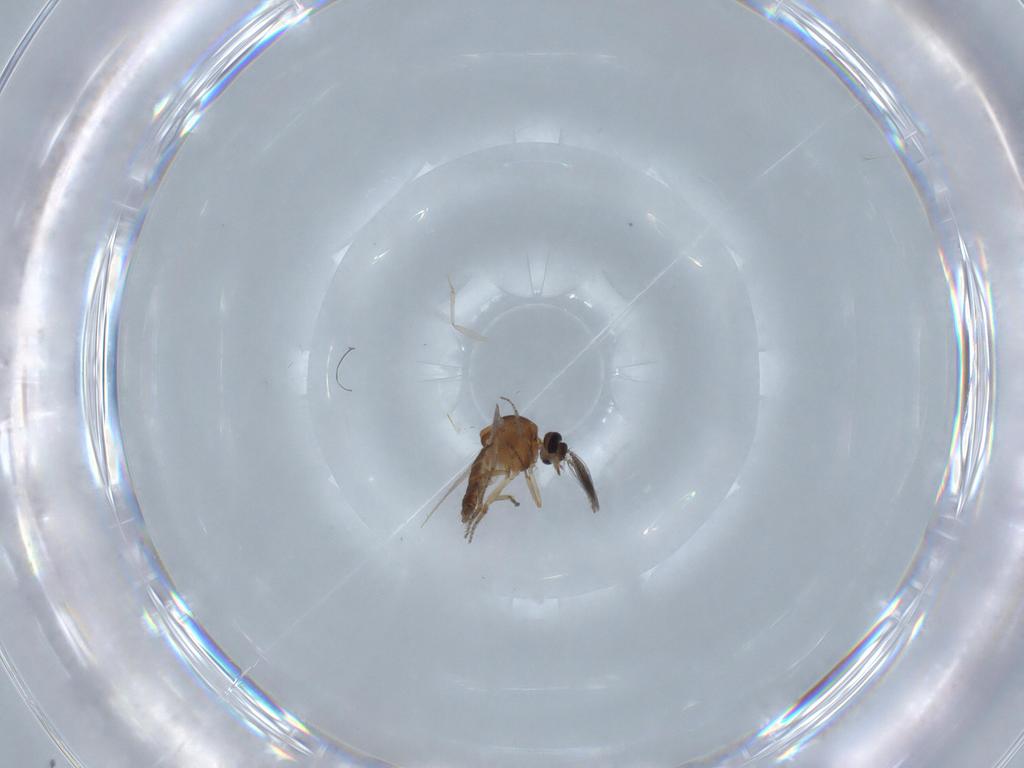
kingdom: Animalia
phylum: Arthropoda
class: Insecta
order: Diptera
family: Ceratopogonidae
